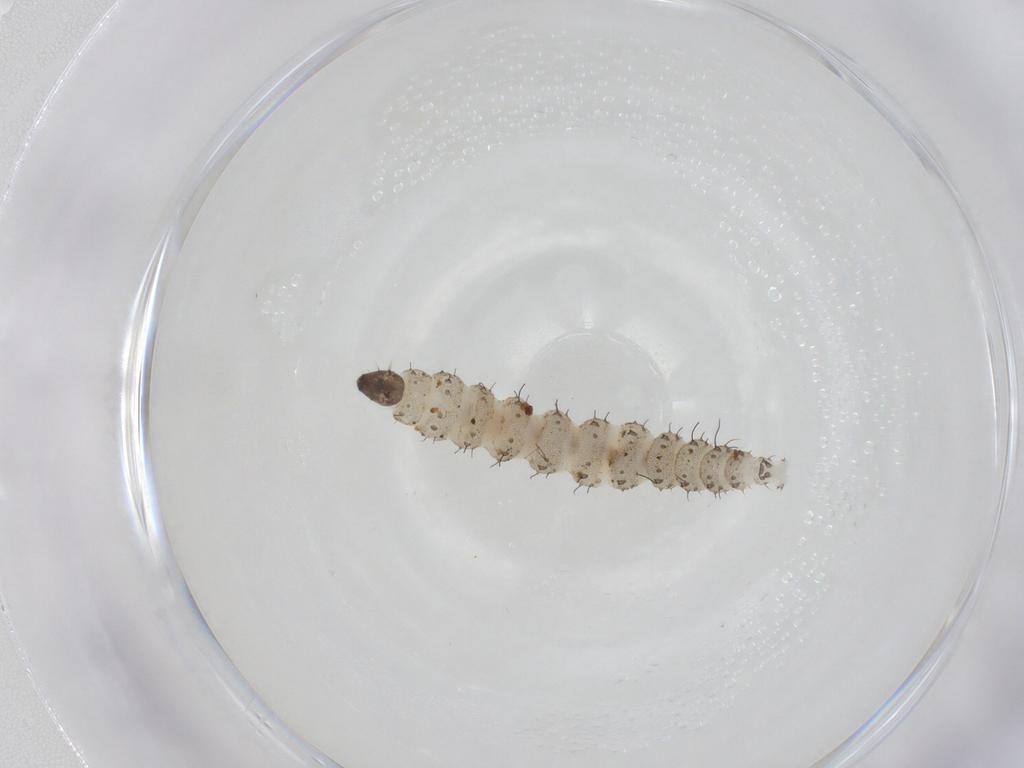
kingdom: Animalia
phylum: Arthropoda
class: Insecta
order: Diptera
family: Ceratopogonidae
